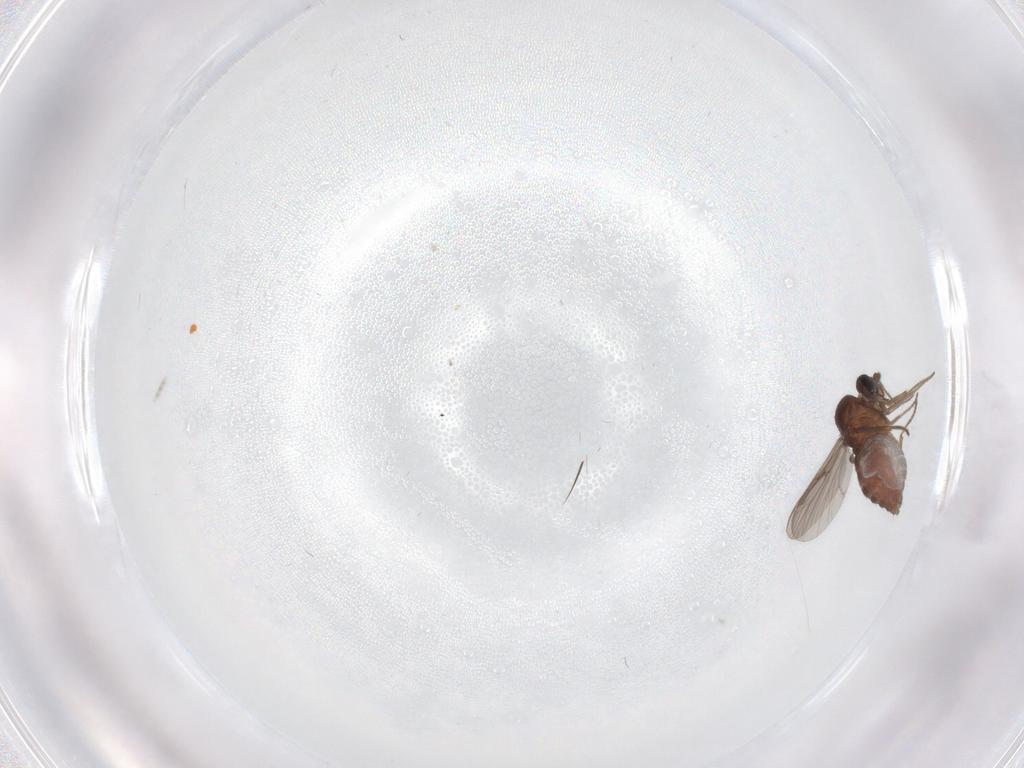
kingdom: Animalia
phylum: Arthropoda
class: Insecta
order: Diptera
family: Ceratopogonidae
